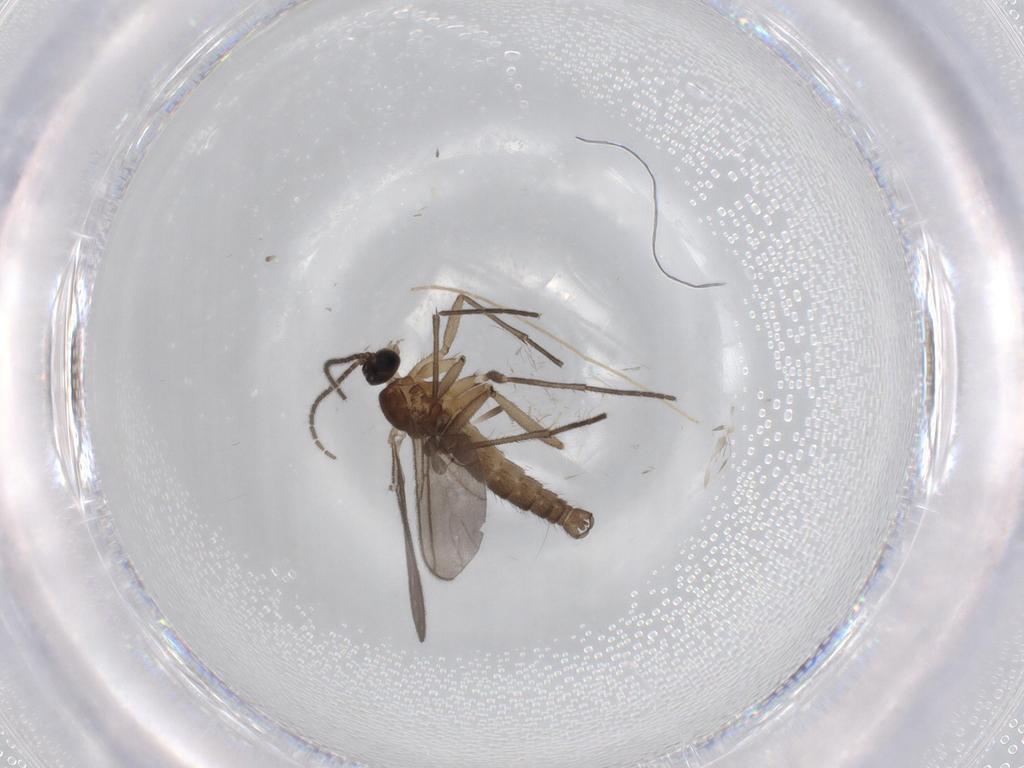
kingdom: Animalia
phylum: Arthropoda
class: Insecta
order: Diptera
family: Chironomidae
